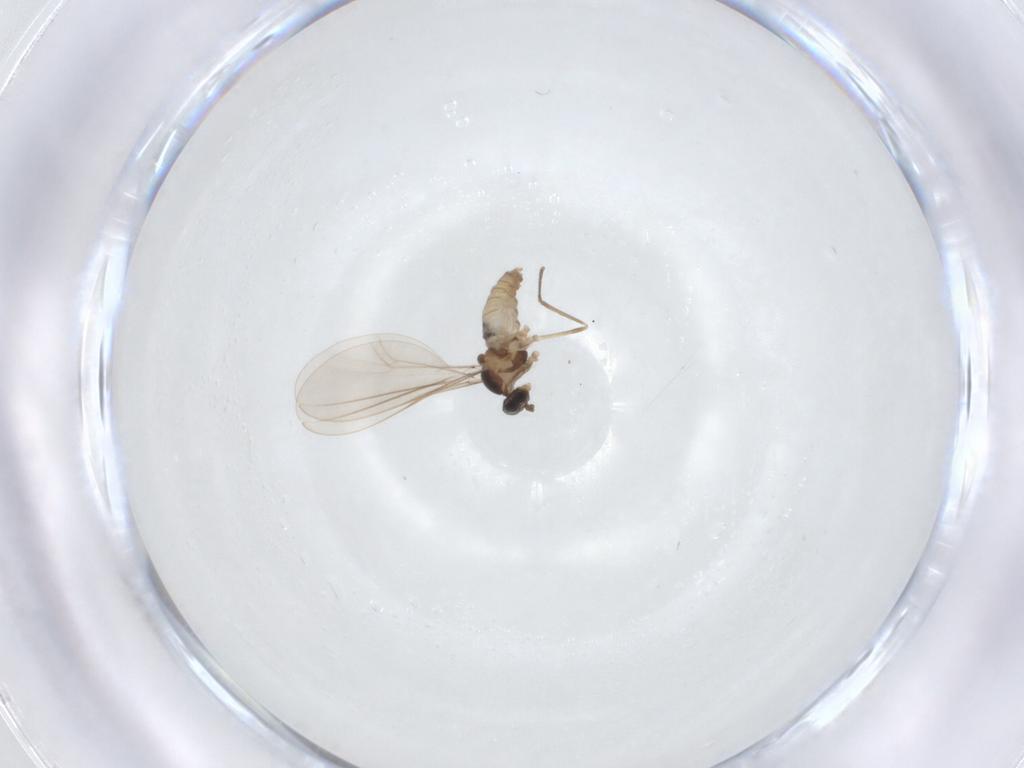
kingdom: Animalia
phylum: Arthropoda
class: Insecta
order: Diptera
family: Cecidomyiidae
